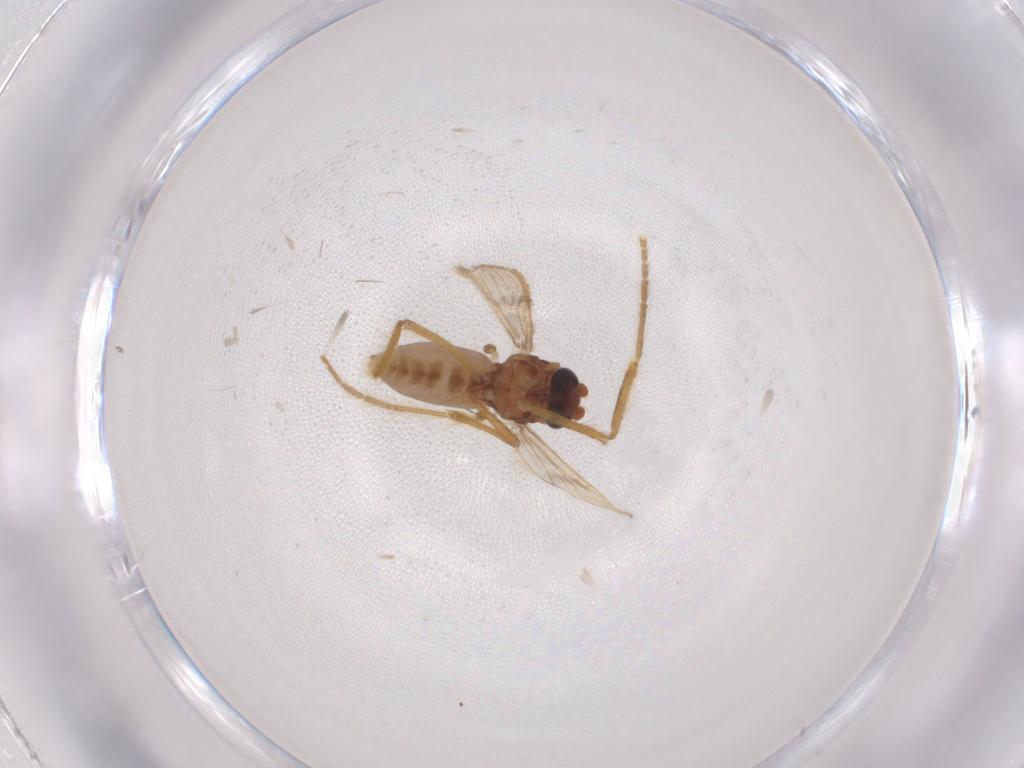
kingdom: Animalia
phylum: Arthropoda
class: Insecta
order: Diptera
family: Corethrellidae
